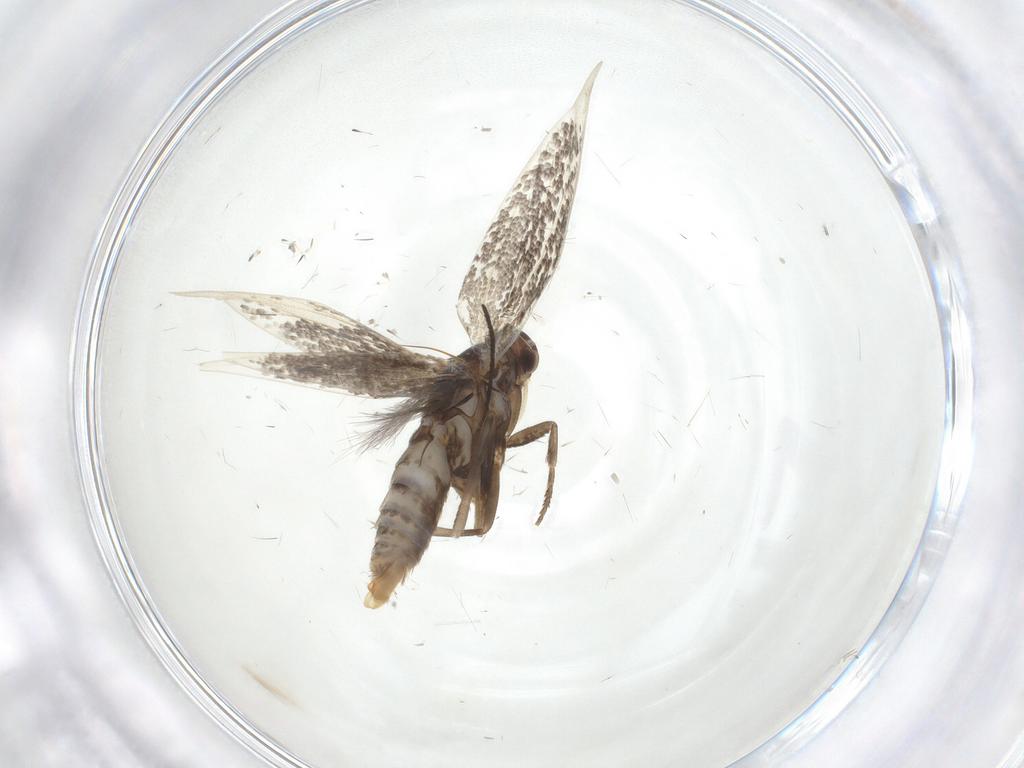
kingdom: Animalia
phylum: Arthropoda
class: Insecta
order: Lepidoptera
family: Elachistidae
